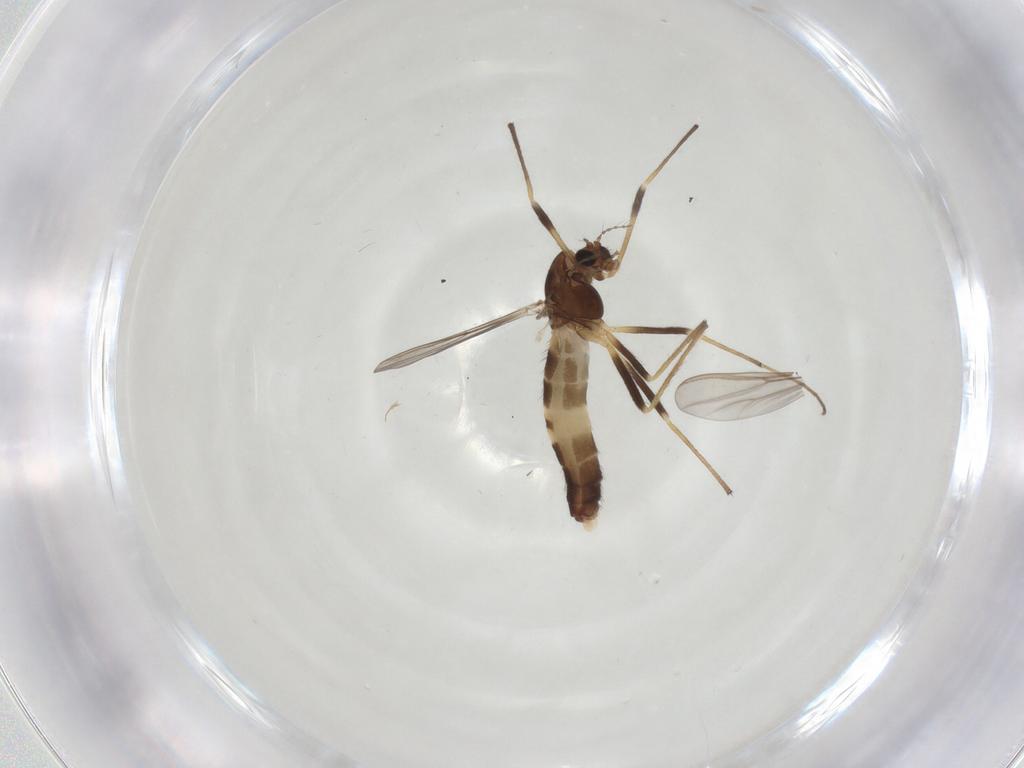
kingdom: Animalia
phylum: Arthropoda
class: Insecta
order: Diptera
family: Chironomidae
